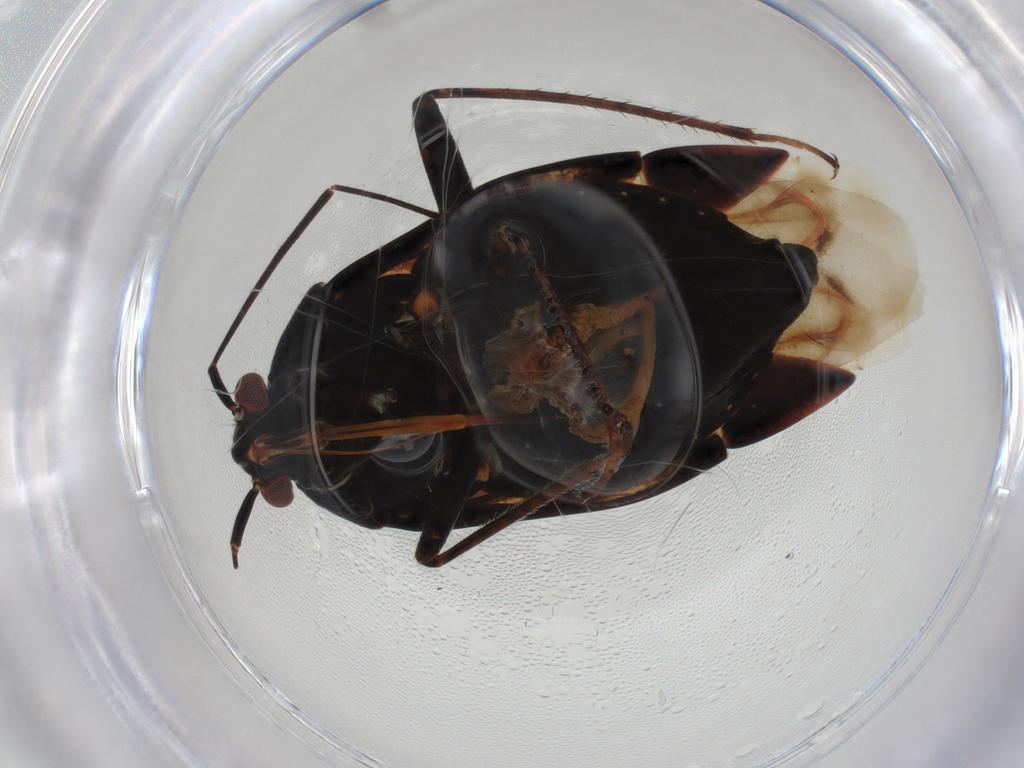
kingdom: Animalia
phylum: Arthropoda
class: Insecta
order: Hemiptera
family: Miridae
